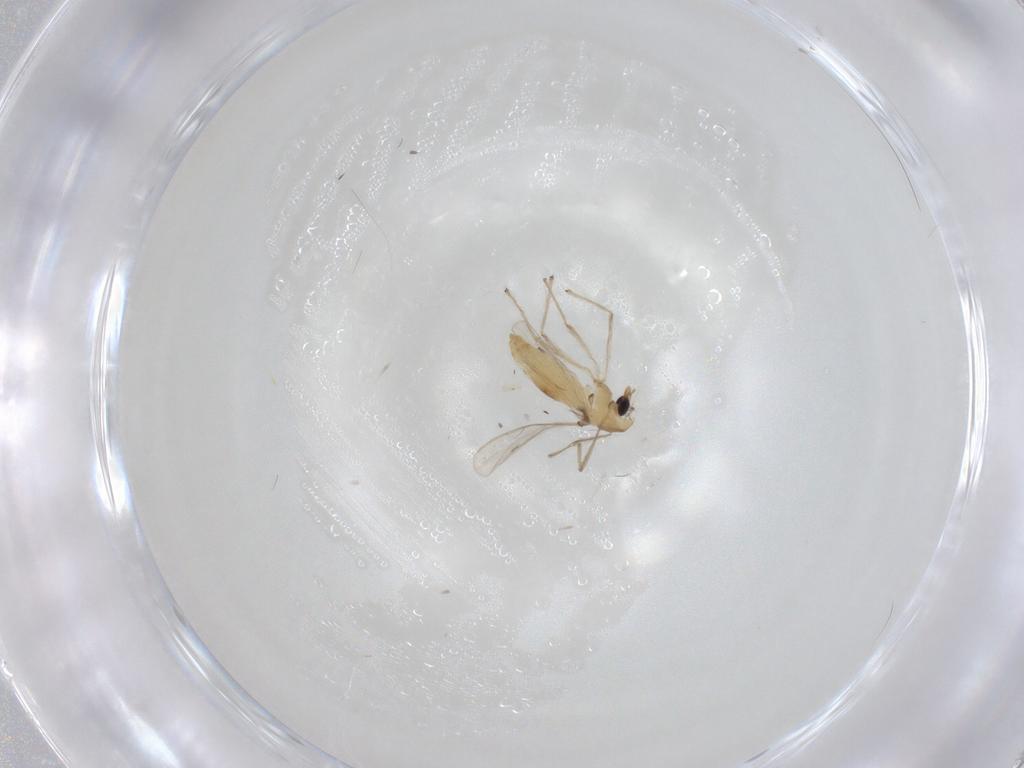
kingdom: Animalia
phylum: Arthropoda
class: Insecta
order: Diptera
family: Chironomidae
